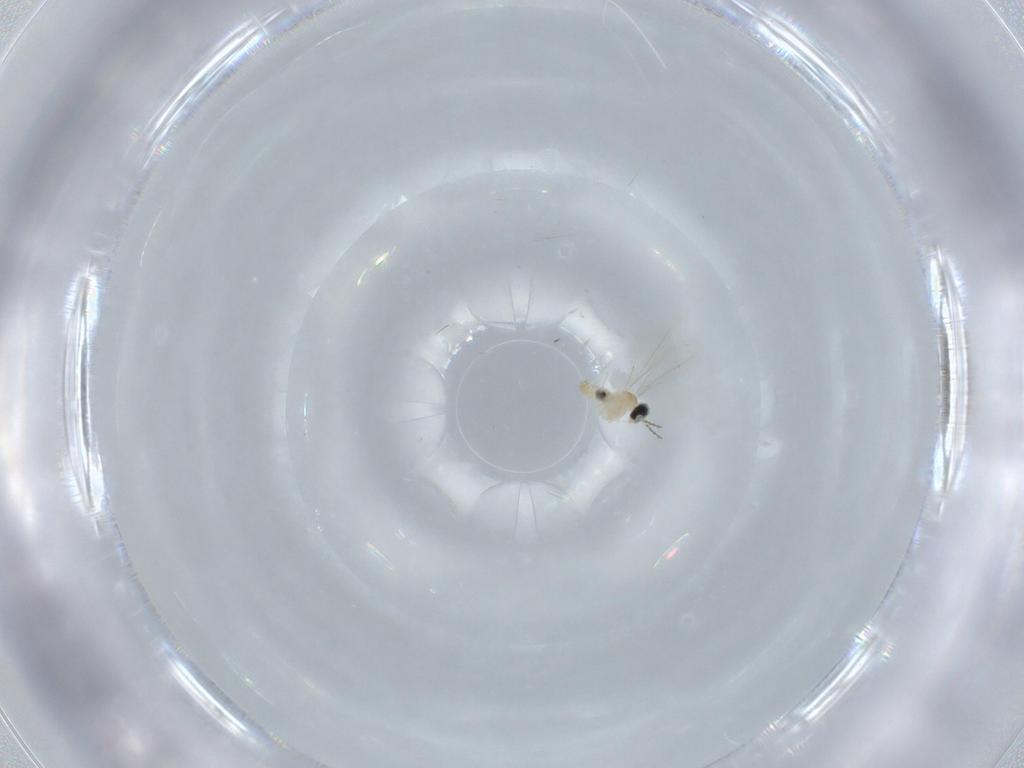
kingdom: Animalia
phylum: Arthropoda
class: Insecta
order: Diptera
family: Cecidomyiidae
